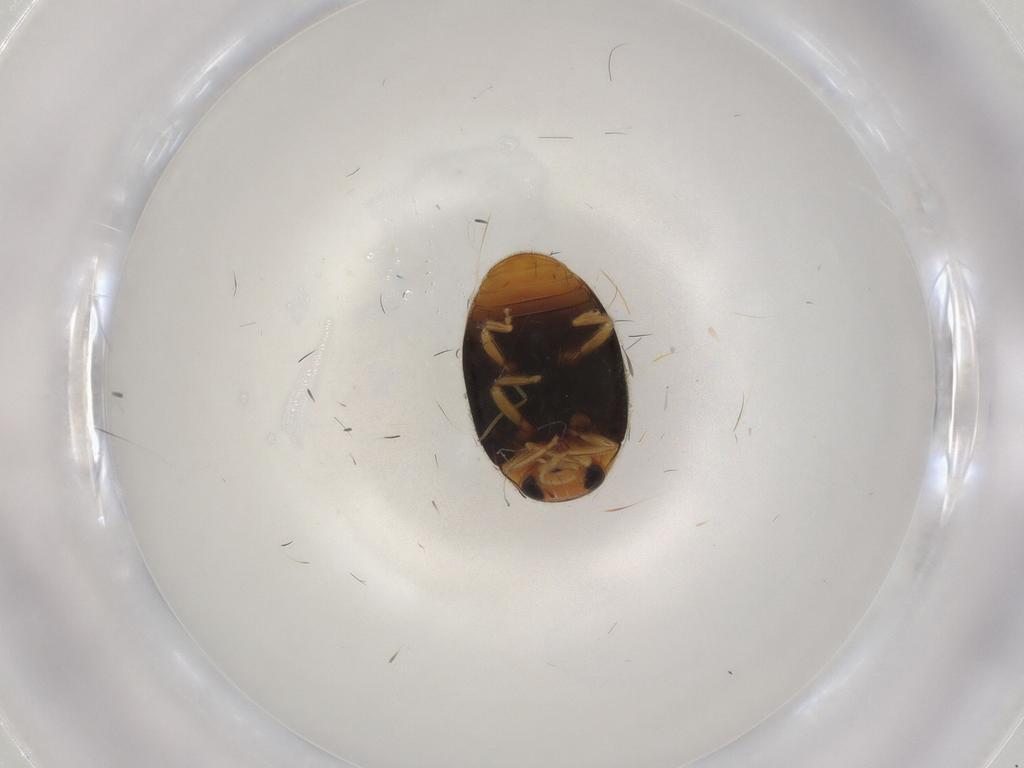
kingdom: Animalia
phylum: Arthropoda
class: Insecta
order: Coleoptera
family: Coccinellidae
